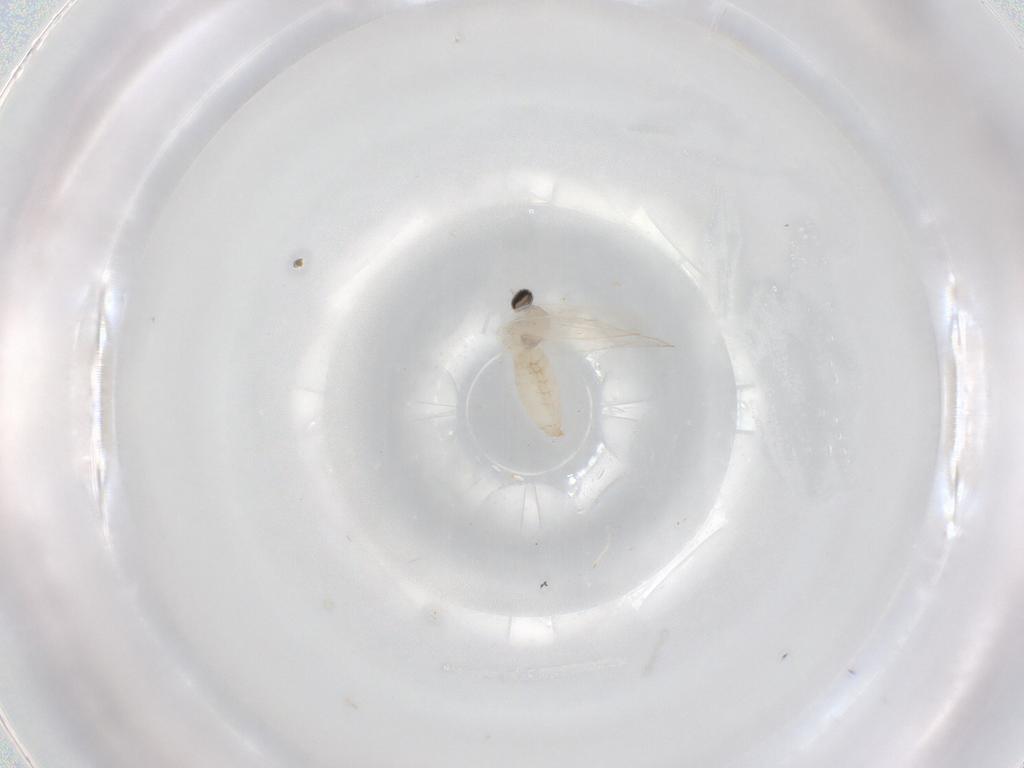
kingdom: Animalia
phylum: Arthropoda
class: Insecta
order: Diptera
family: Cecidomyiidae
